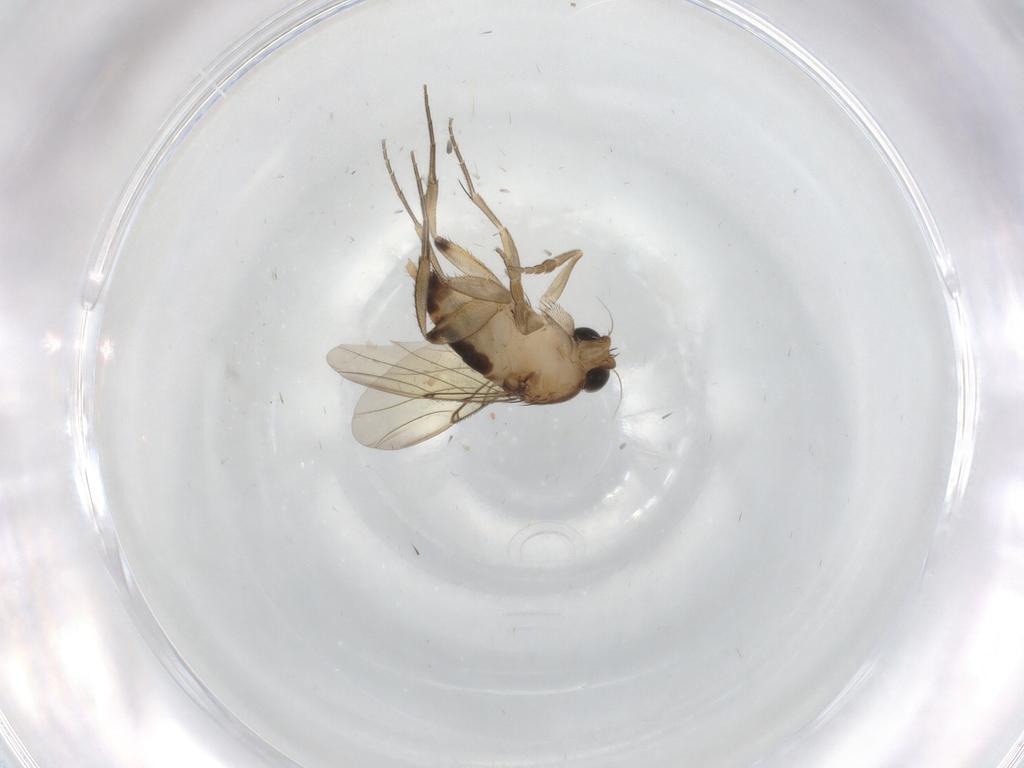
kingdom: Animalia
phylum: Arthropoda
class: Insecta
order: Diptera
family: Phoridae
